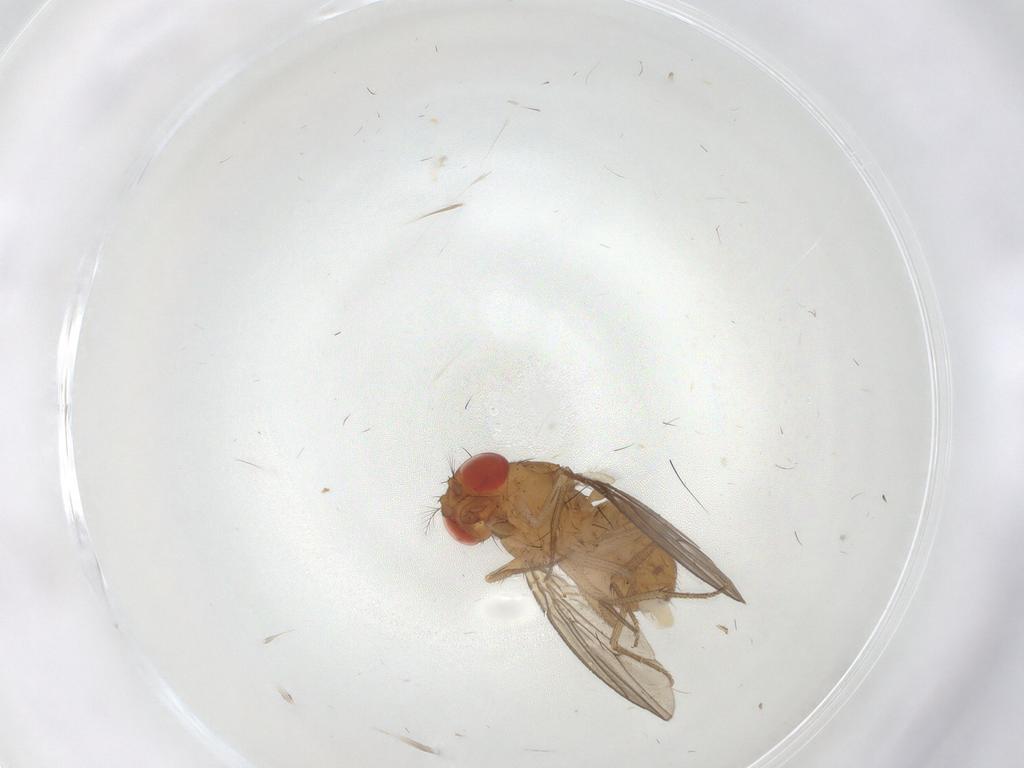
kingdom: Animalia
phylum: Arthropoda
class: Insecta
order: Diptera
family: Drosophilidae
